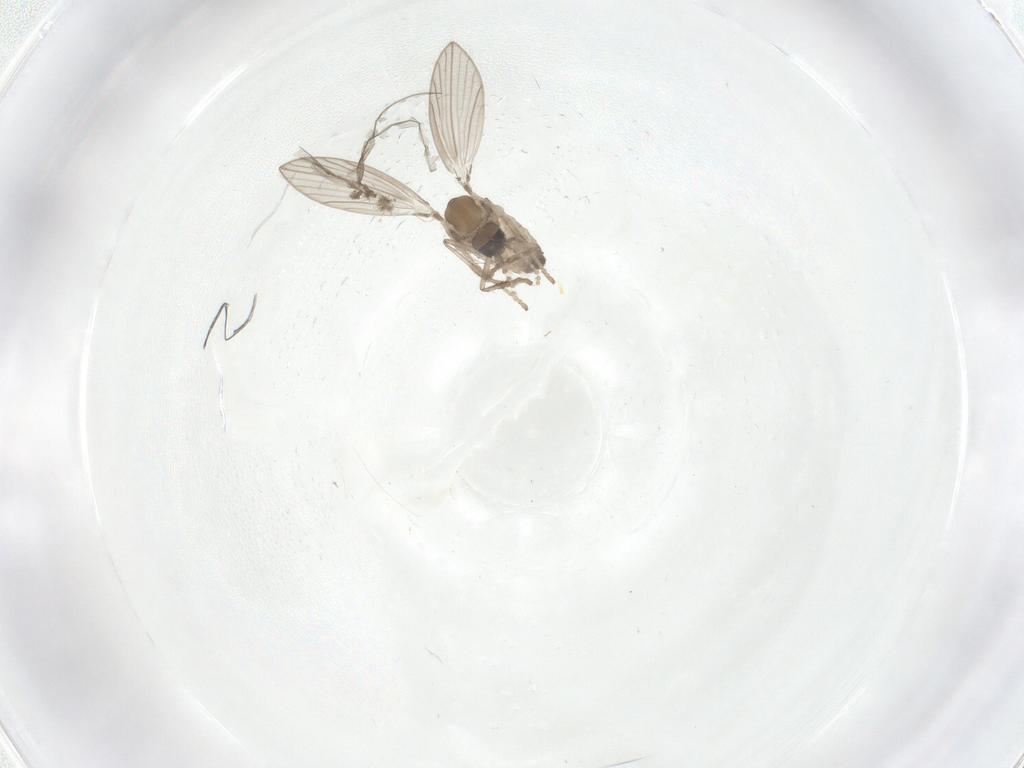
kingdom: Animalia
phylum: Arthropoda
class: Insecta
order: Diptera
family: Psychodidae
